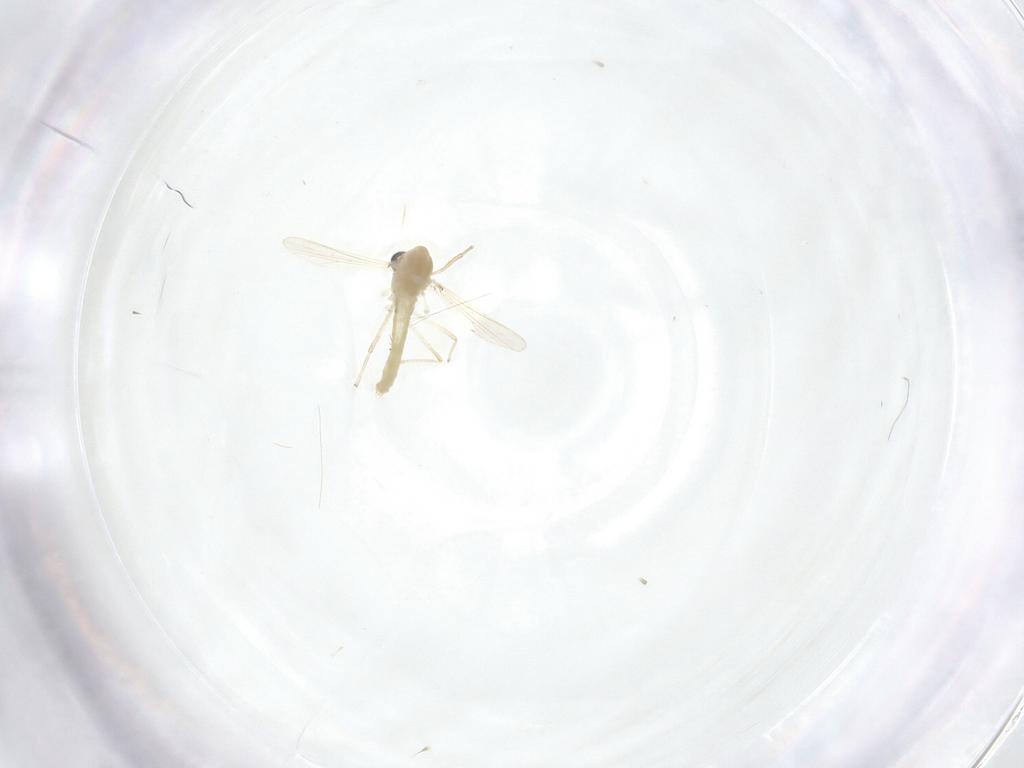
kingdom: Animalia
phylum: Arthropoda
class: Insecta
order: Diptera
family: Chironomidae
